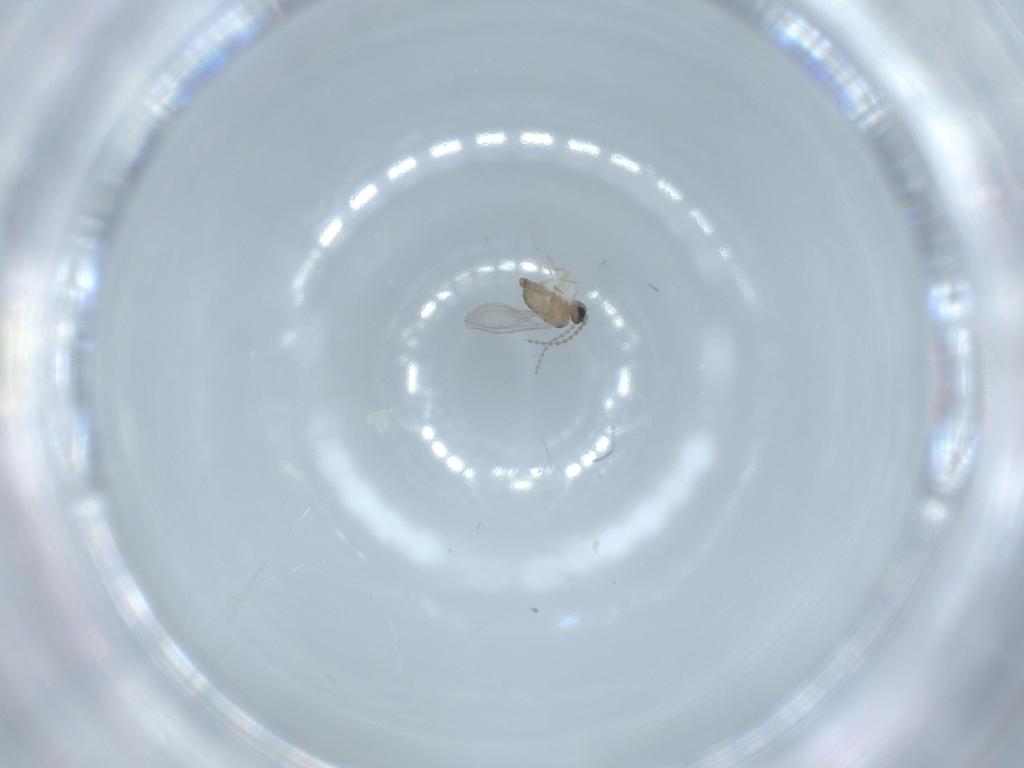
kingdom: Animalia
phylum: Arthropoda
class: Insecta
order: Diptera
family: Cecidomyiidae
